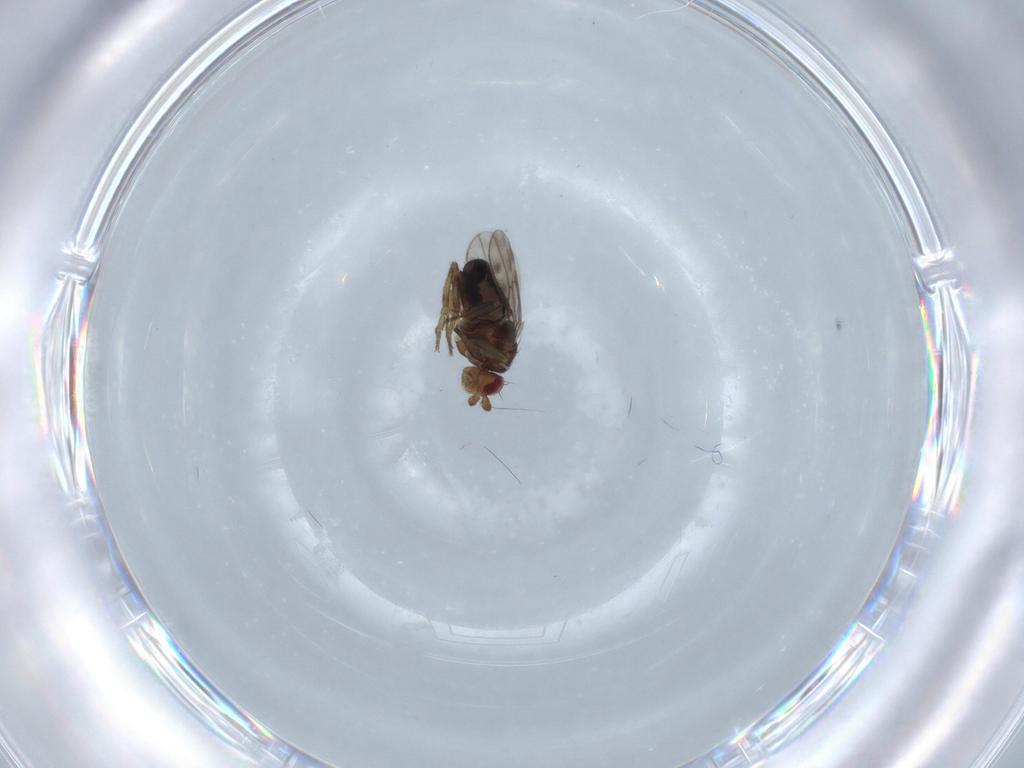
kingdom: Animalia
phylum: Arthropoda
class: Insecta
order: Diptera
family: Sphaeroceridae
